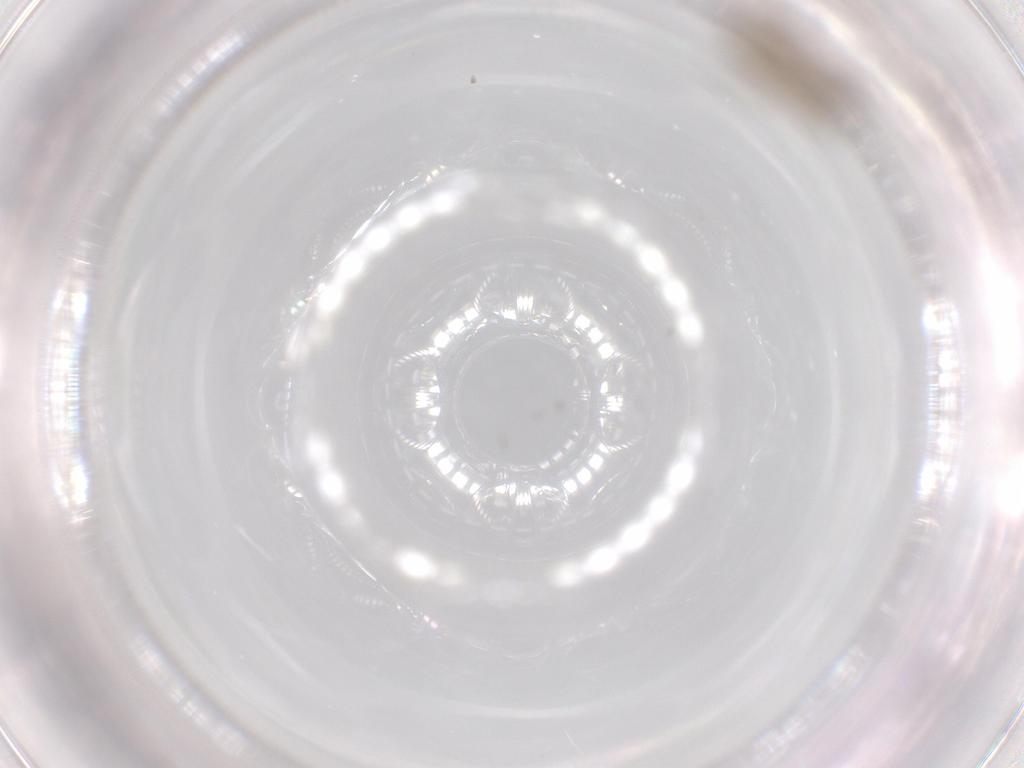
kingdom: Animalia
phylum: Arthropoda
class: Insecta
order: Diptera
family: Chironomidae
